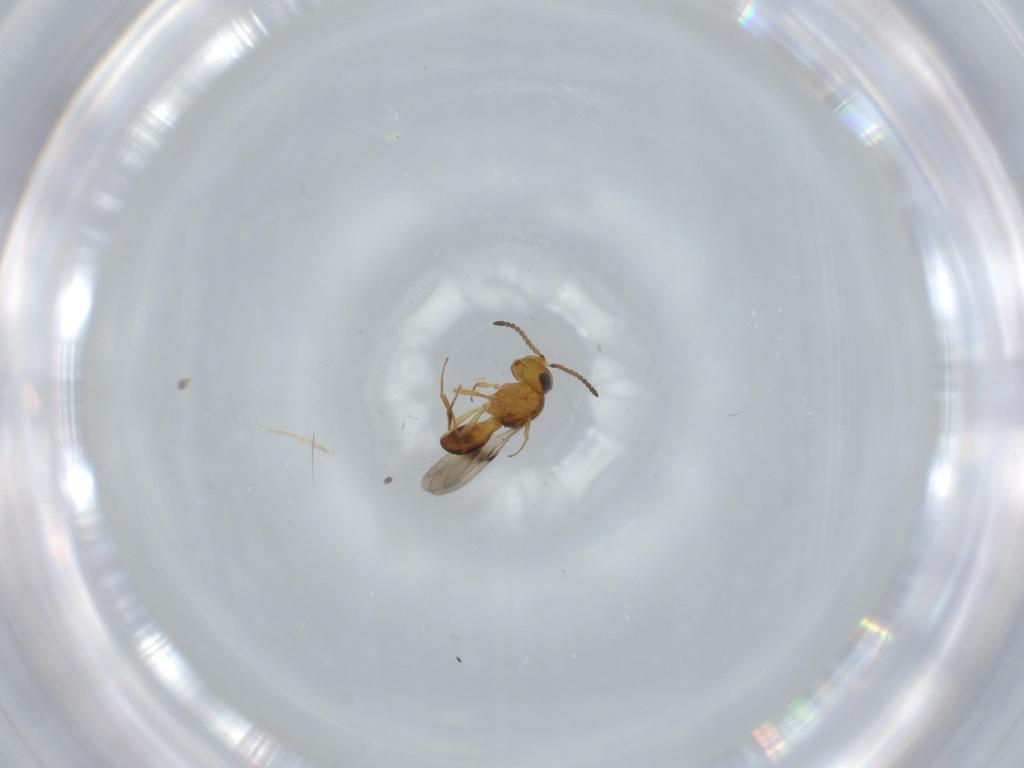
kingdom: Animalia
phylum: Arthropoda
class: Insecta
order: Hymenoptera
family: Scelionidae
